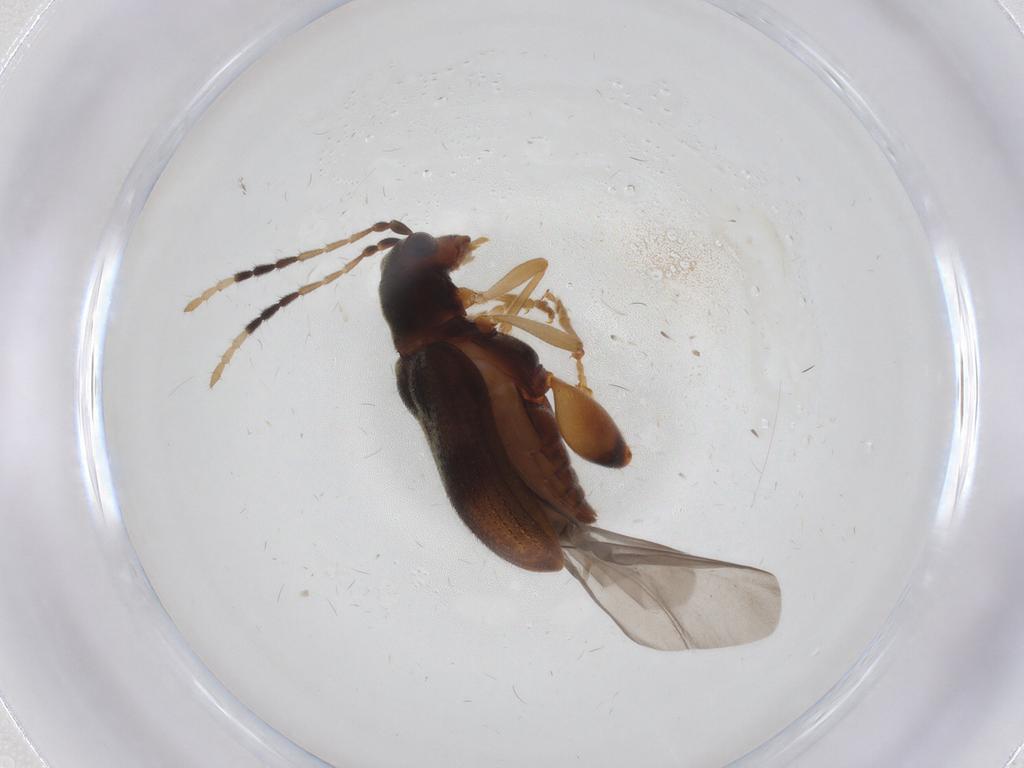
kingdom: Animalia
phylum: Arthropoda
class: Insecta
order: Coleoptera
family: Chrysomelidae
